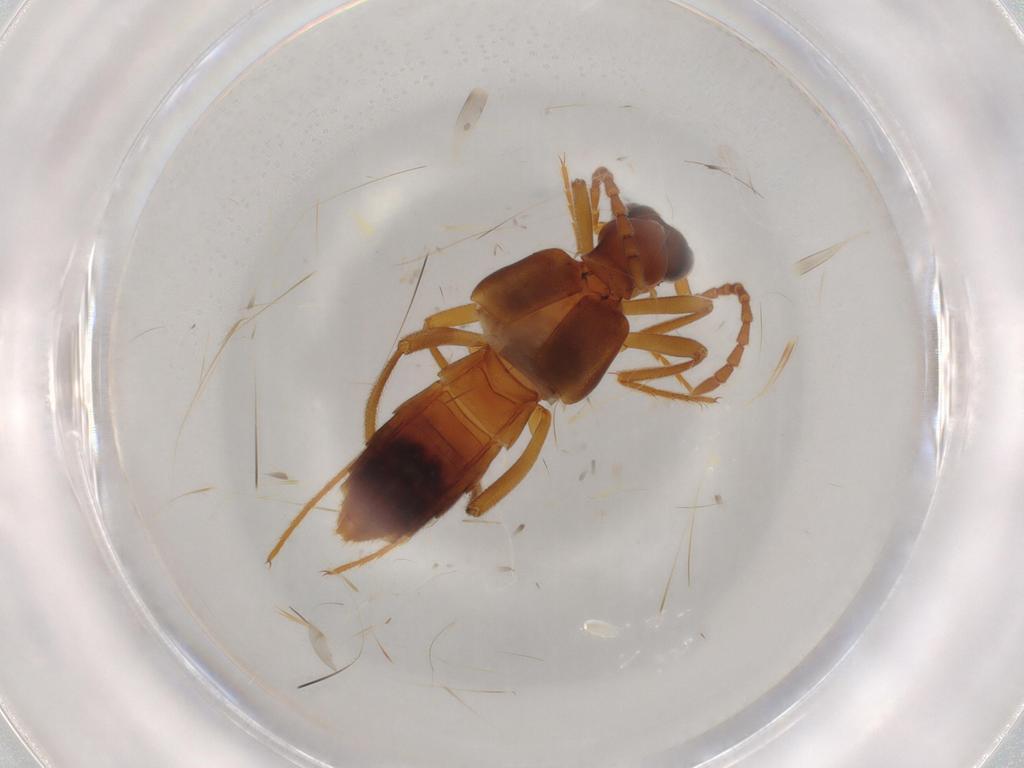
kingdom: Animalia
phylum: Arthropoda
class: Insecta
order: Coleoptera
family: Staphylinidae
